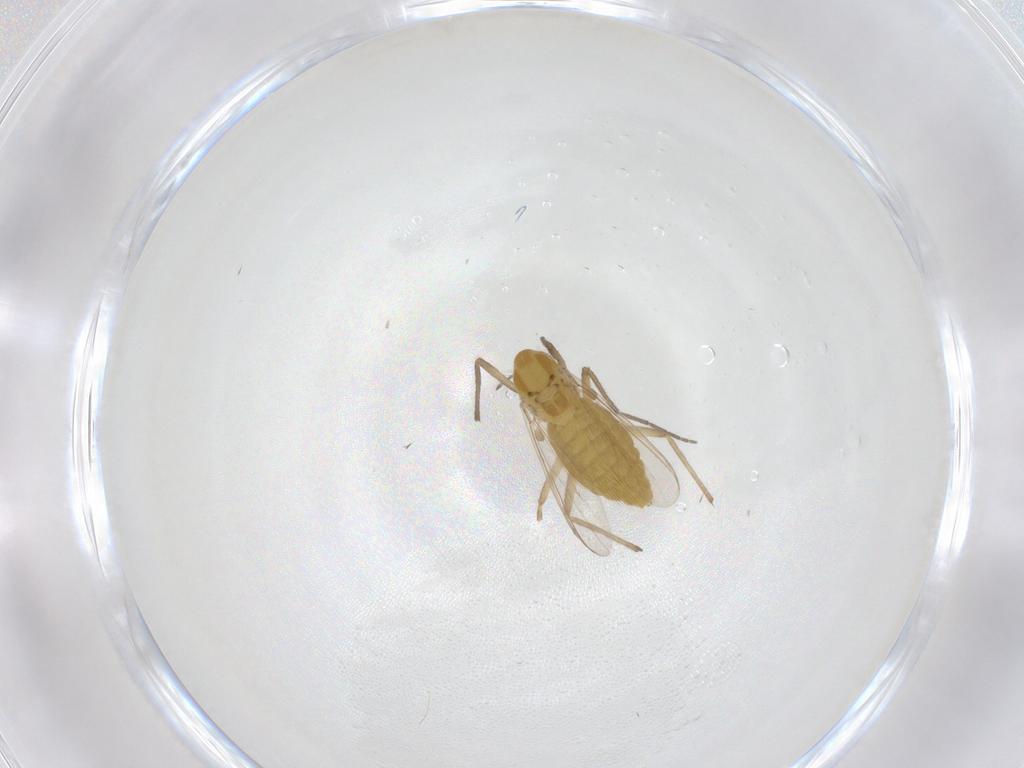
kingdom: Animalia
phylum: Arthropoda
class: Insecta
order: Diptera
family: Chironomidae
